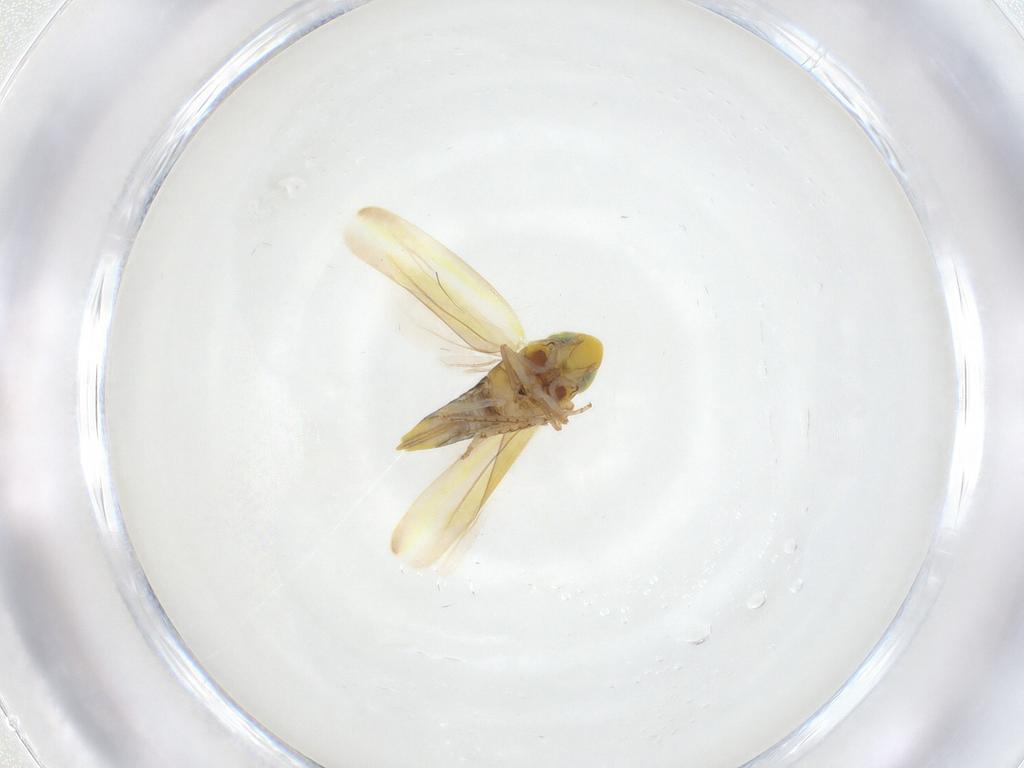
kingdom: Animalia
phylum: Arthropoda
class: Insecta
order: Hemiptera
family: Cicadellidae
